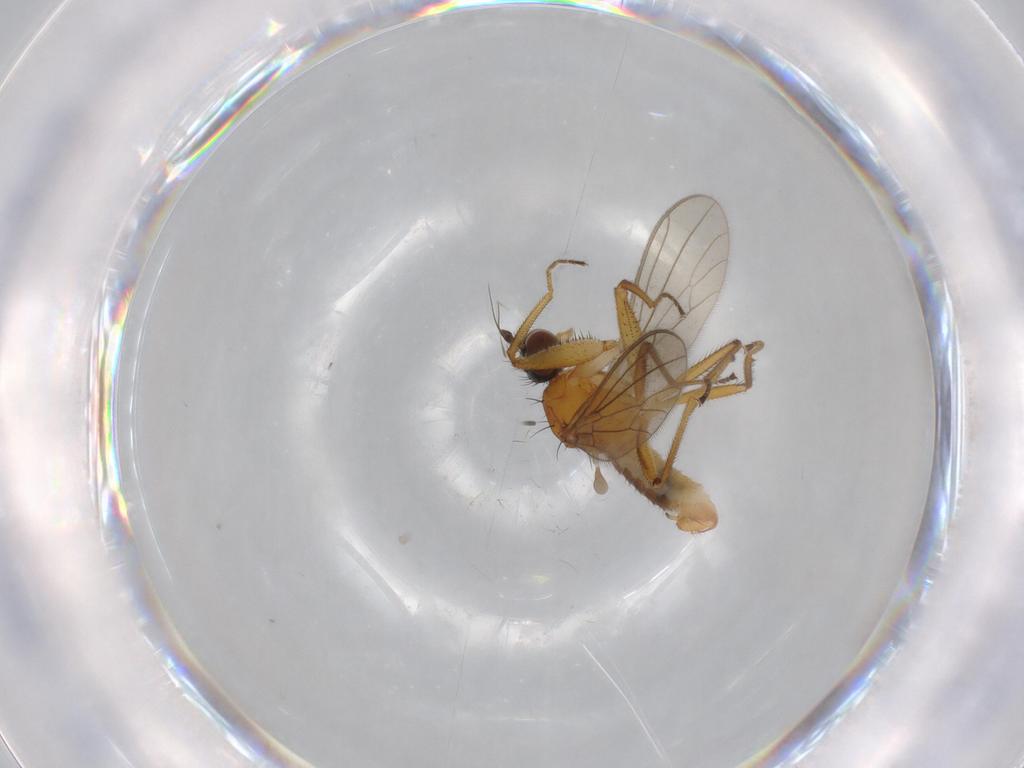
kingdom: Animalia
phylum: Arthropoda
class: Insecta
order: Diptera
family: Empididae
